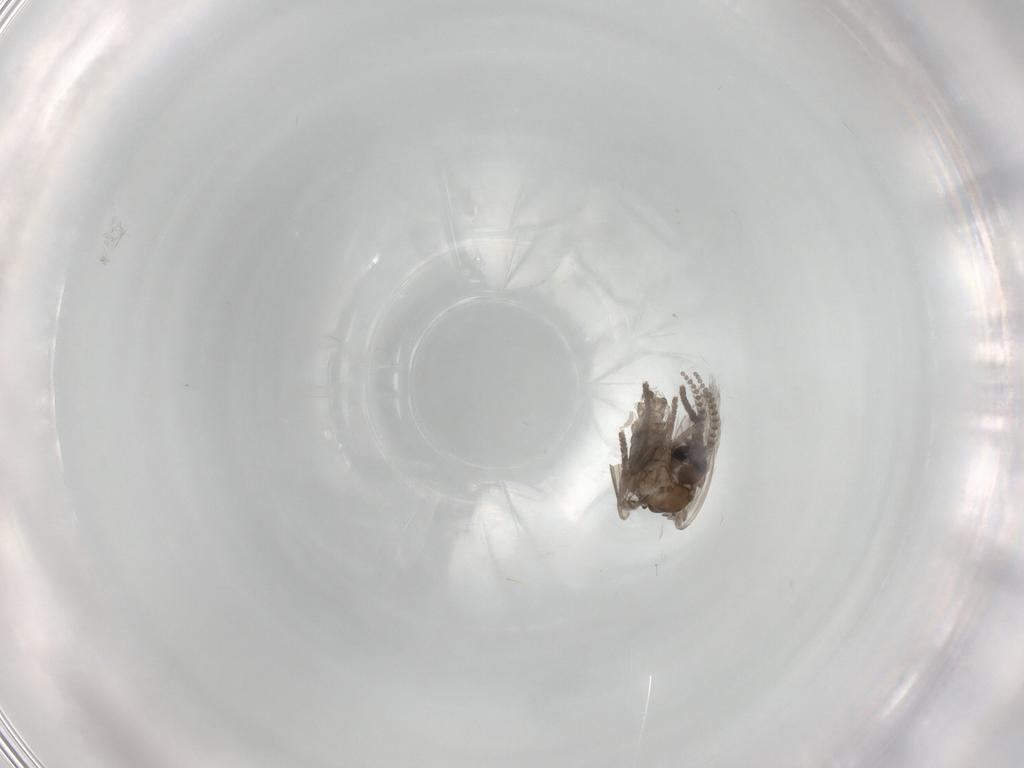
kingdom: Animalia
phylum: Arthropoda
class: Insecta
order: Diptera
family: Psychodidae
